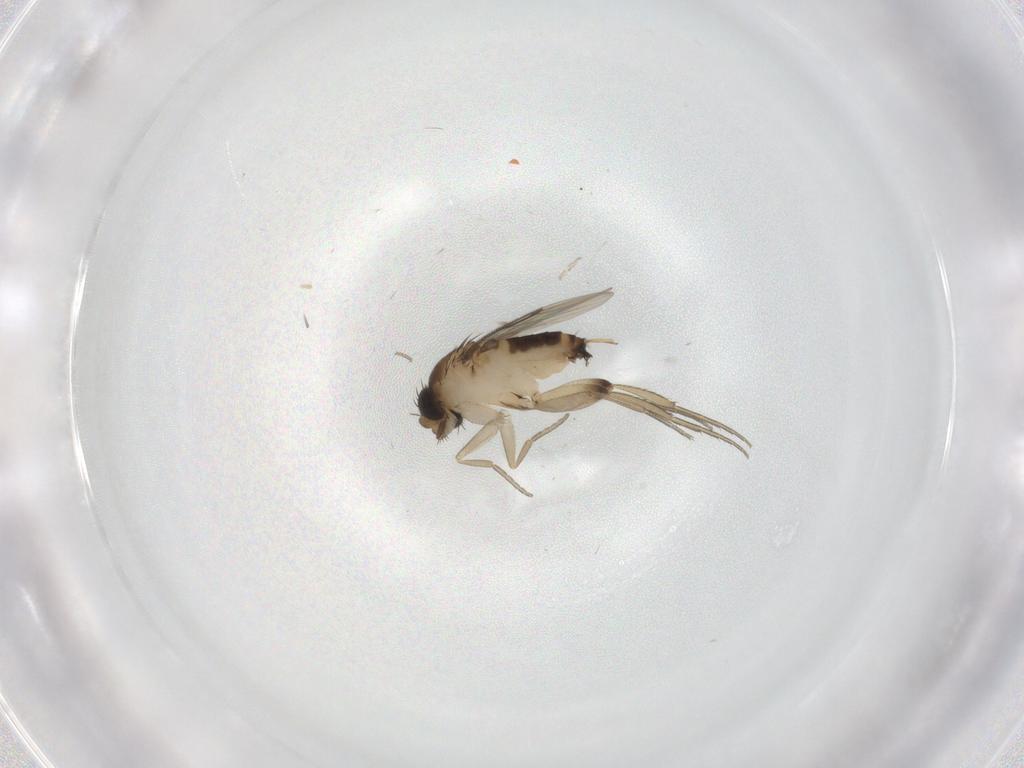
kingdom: Animalia
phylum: Arthropoda
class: Insecta
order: Diptera
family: Phoridae
